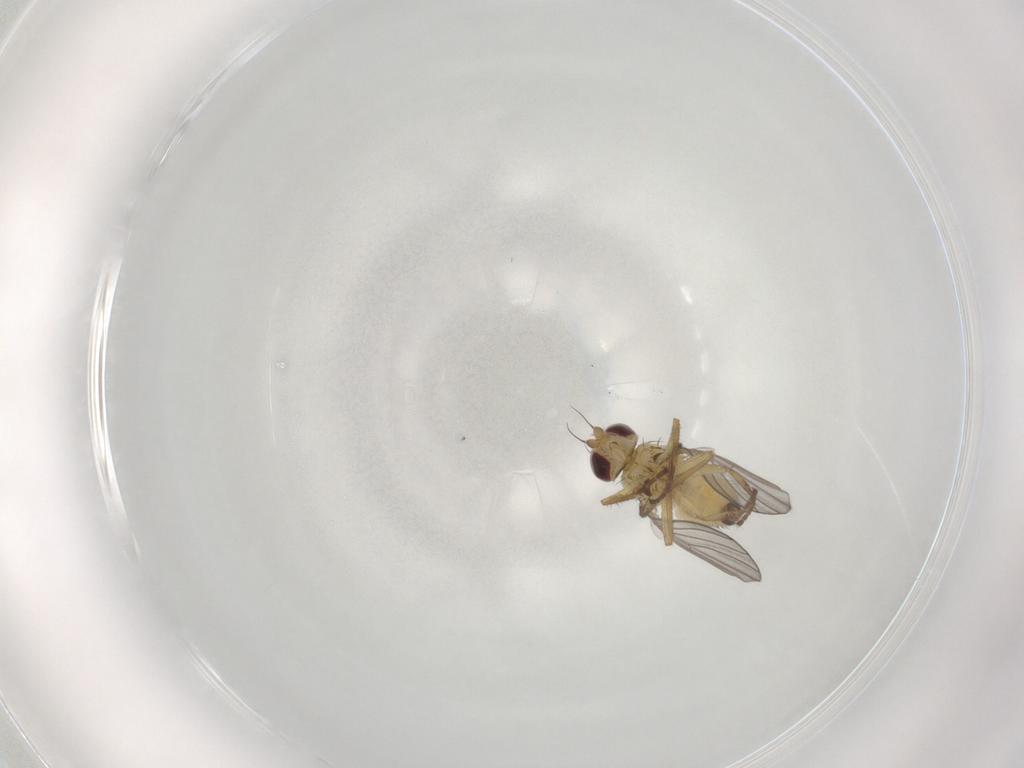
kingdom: Animalia
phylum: Arthropoda
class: Insecta
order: Diptera
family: Agromyzidae
